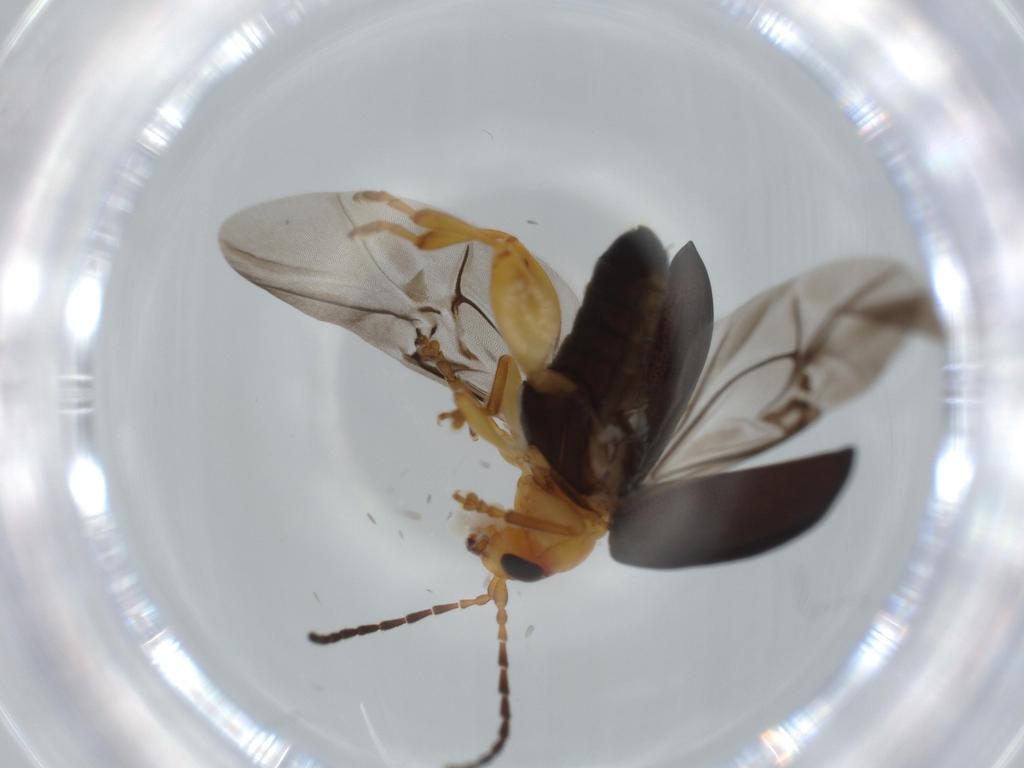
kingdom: Animalia
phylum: Arthropoda
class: Insecta
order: Coleoptera
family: Chrysomelidae
